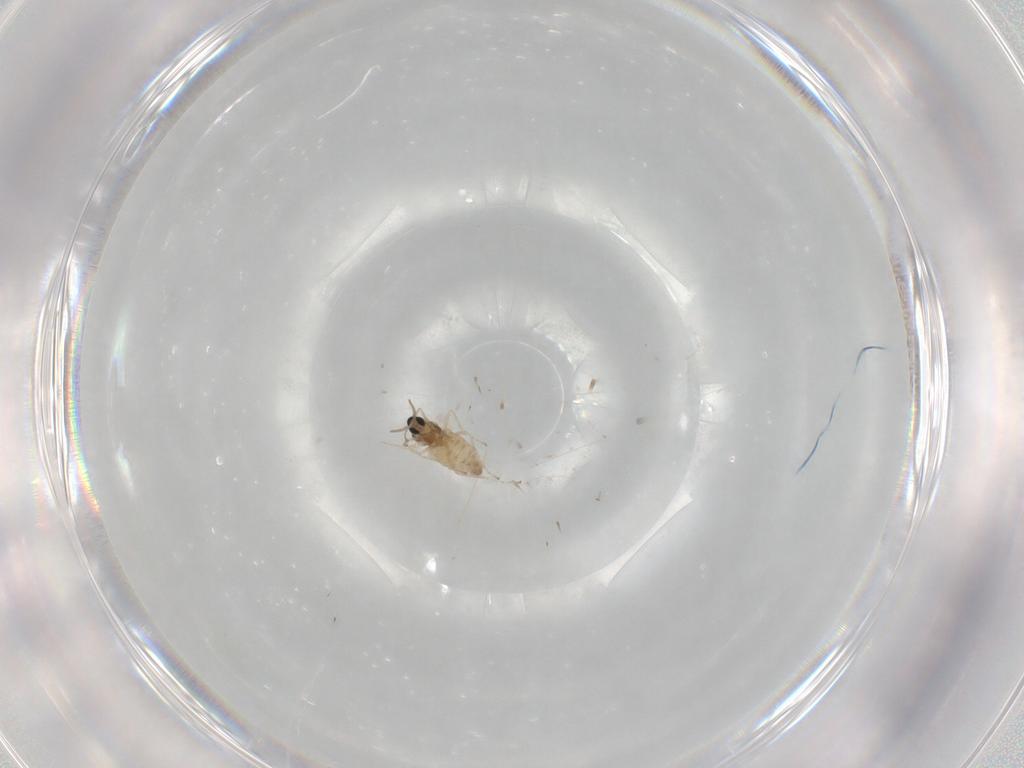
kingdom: Animalia
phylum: Arthropoda
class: Insecta
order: Diptera
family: Cecidomyiidae
